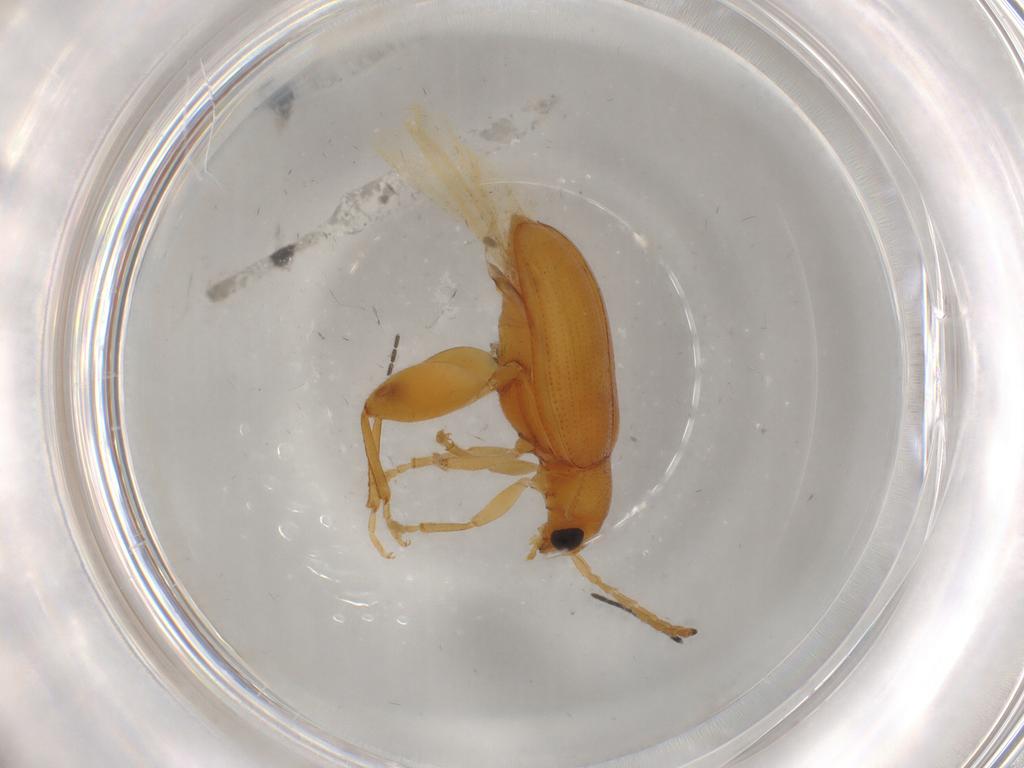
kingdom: Animalia
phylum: Arthropoda
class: Insecta
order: Coleoptera
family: Chrysomelidae
